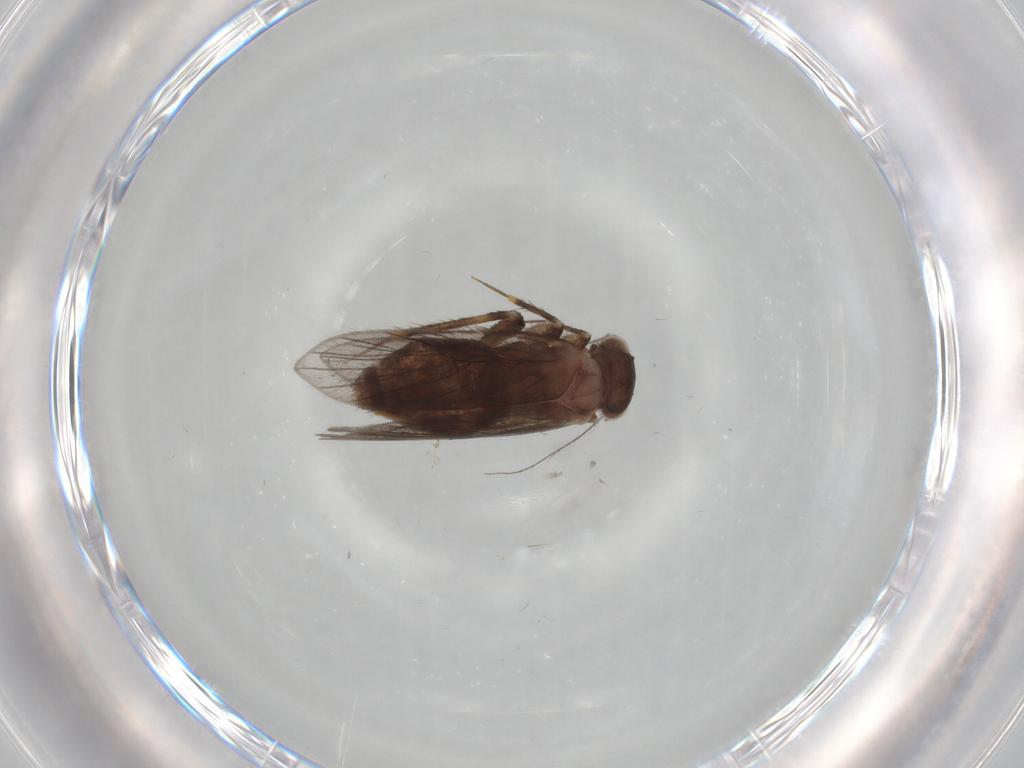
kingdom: Animalia
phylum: Arthropoda
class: Insecta
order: Psocodea
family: Lepidopsocidae
